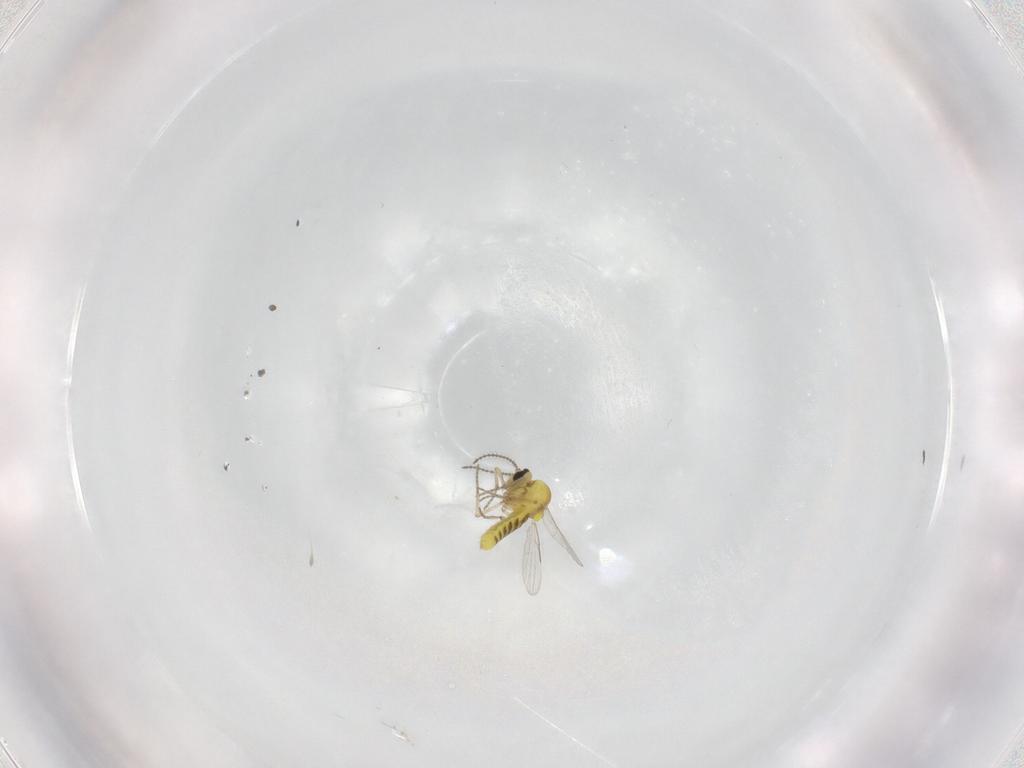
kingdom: Animalia
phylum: Arthropoda
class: Insecta
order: Diptera
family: Ceratopogonidae
